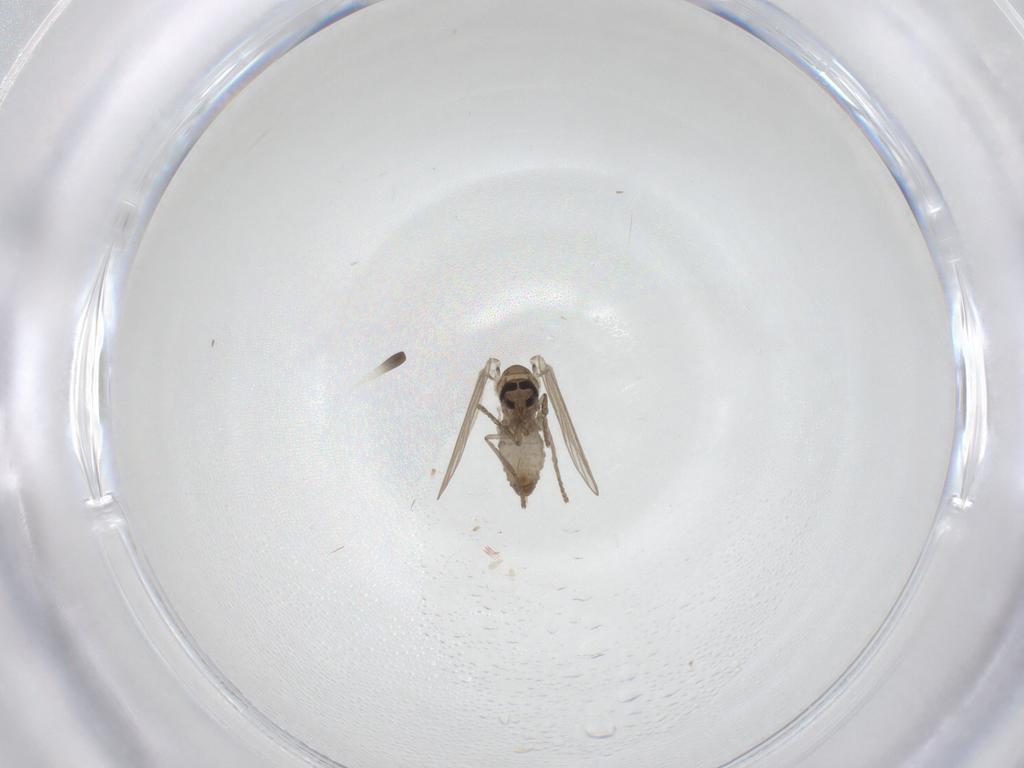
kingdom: Animalia
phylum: Arthropoda
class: Insecta
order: Diptera
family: Psychodidae
